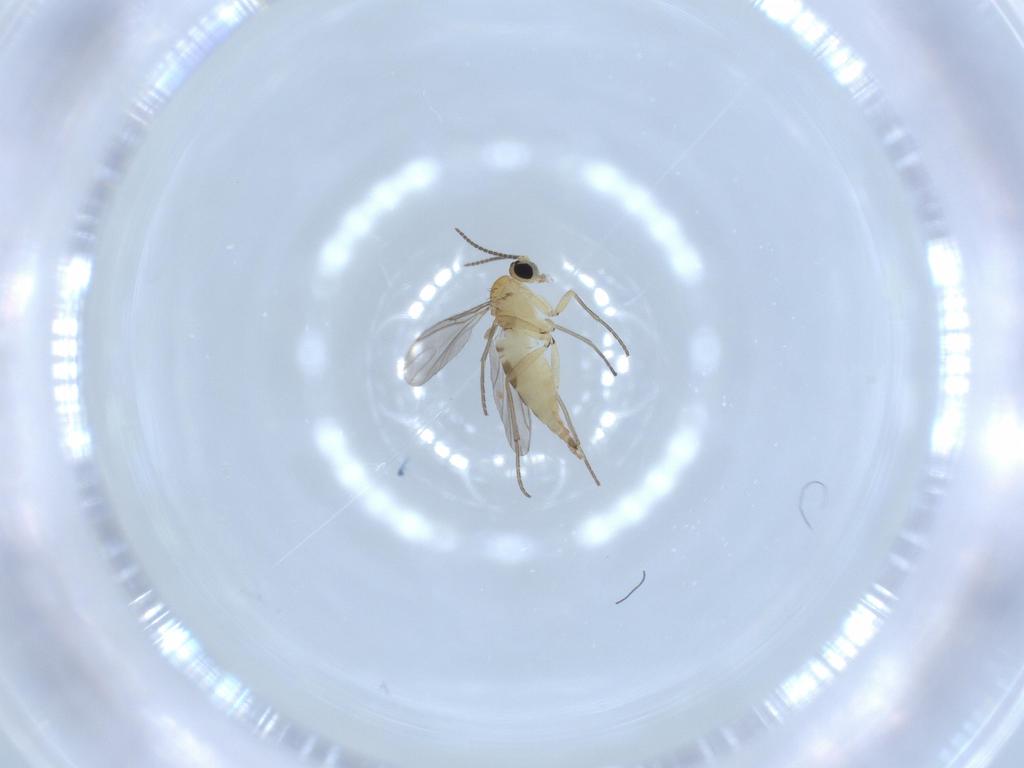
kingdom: Animalia
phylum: Arthropoda
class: Insecta
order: Diptera
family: Sciaridae
